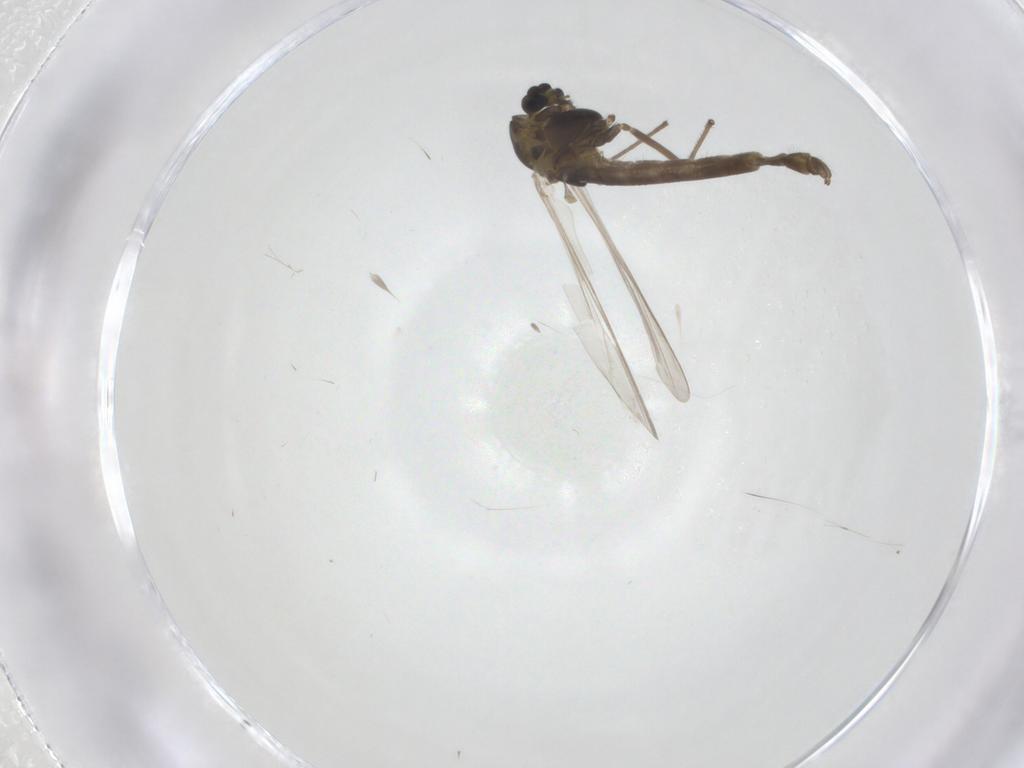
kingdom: Animalia
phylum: Arthropoda
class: Insecta
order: Diptera
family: Chironomidae
